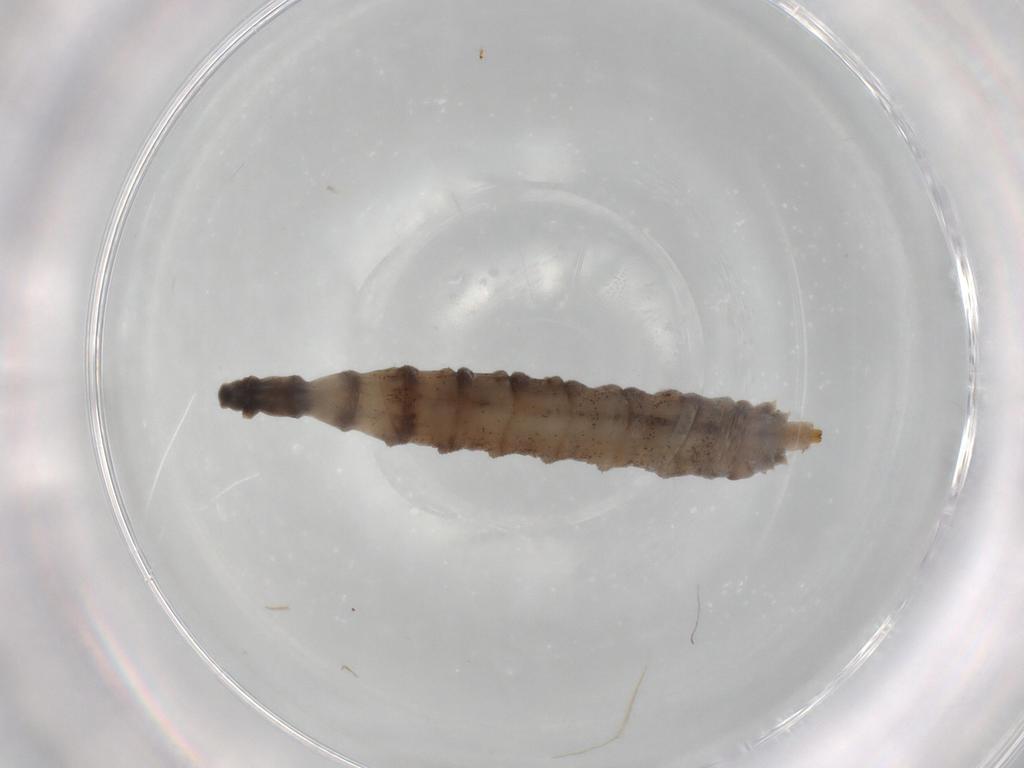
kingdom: Animalia
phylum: Arthropoda
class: Insecta
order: Diptera
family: Drosophilidae
